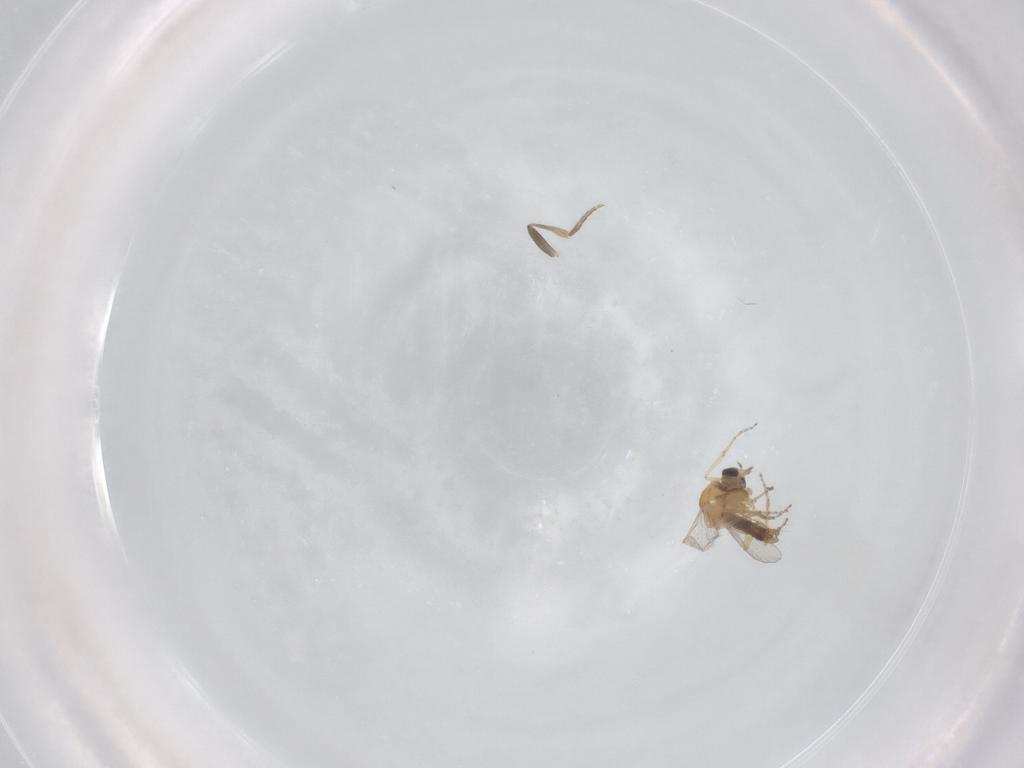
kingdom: Animalia
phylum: Arthropoda
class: Insecta
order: Diptera
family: Ceratopogonidae
